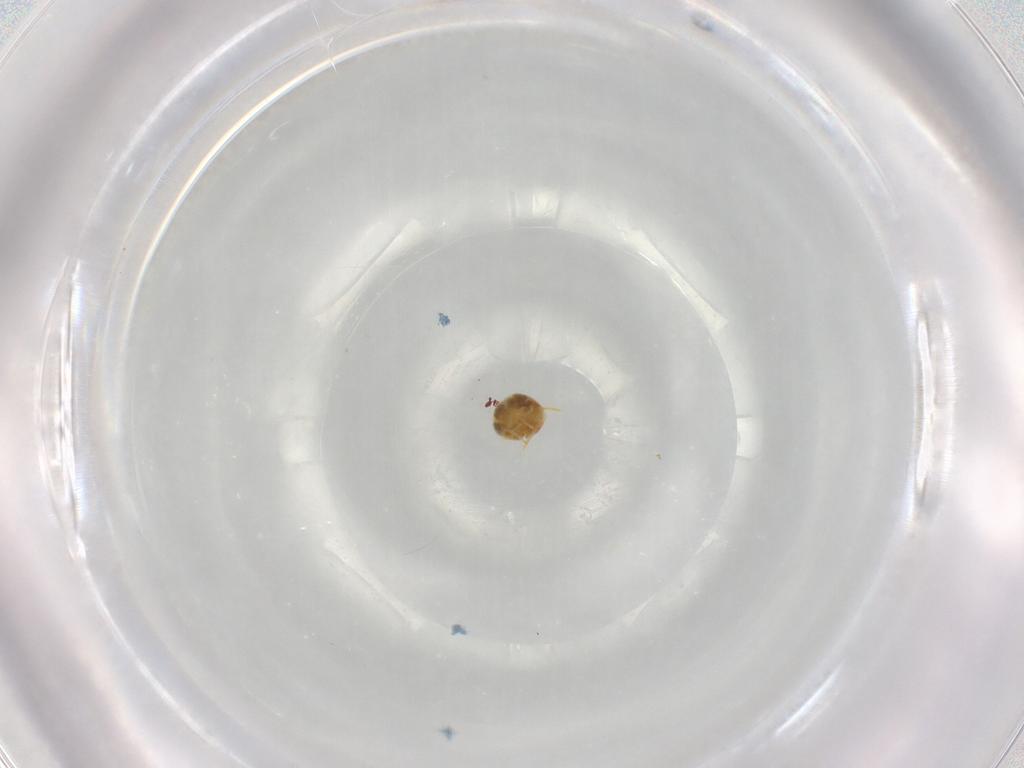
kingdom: Animalia
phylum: Arthropoda
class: Arachnida
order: Trombidiformes
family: Tetranychidae
